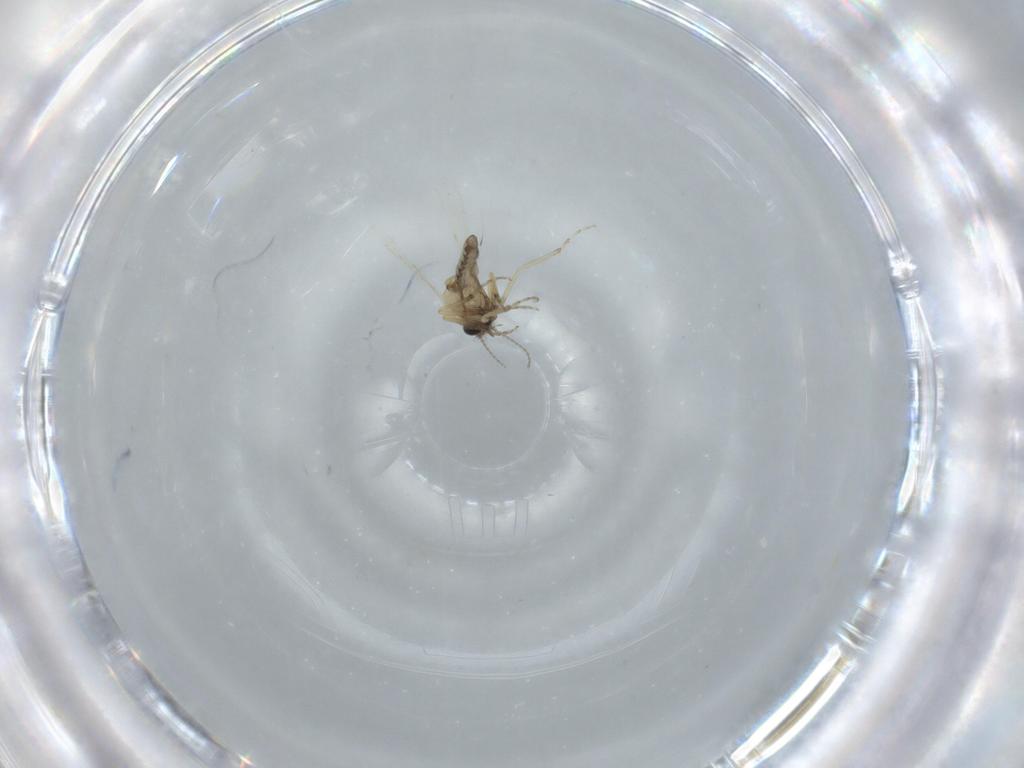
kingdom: Animalia
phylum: Arthropoda
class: Insecta
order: Diptera
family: Ceratopogonidae
